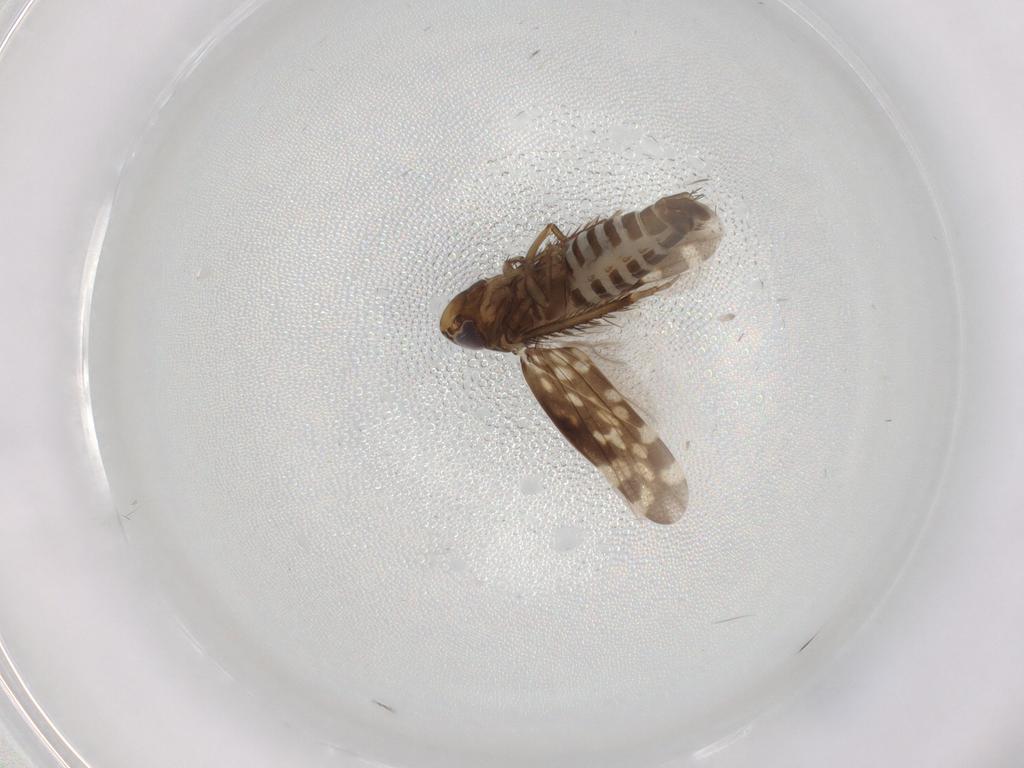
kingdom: Animalia
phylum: Arthropoda
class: Insecta
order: Hemiptera
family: Cicadellidae
